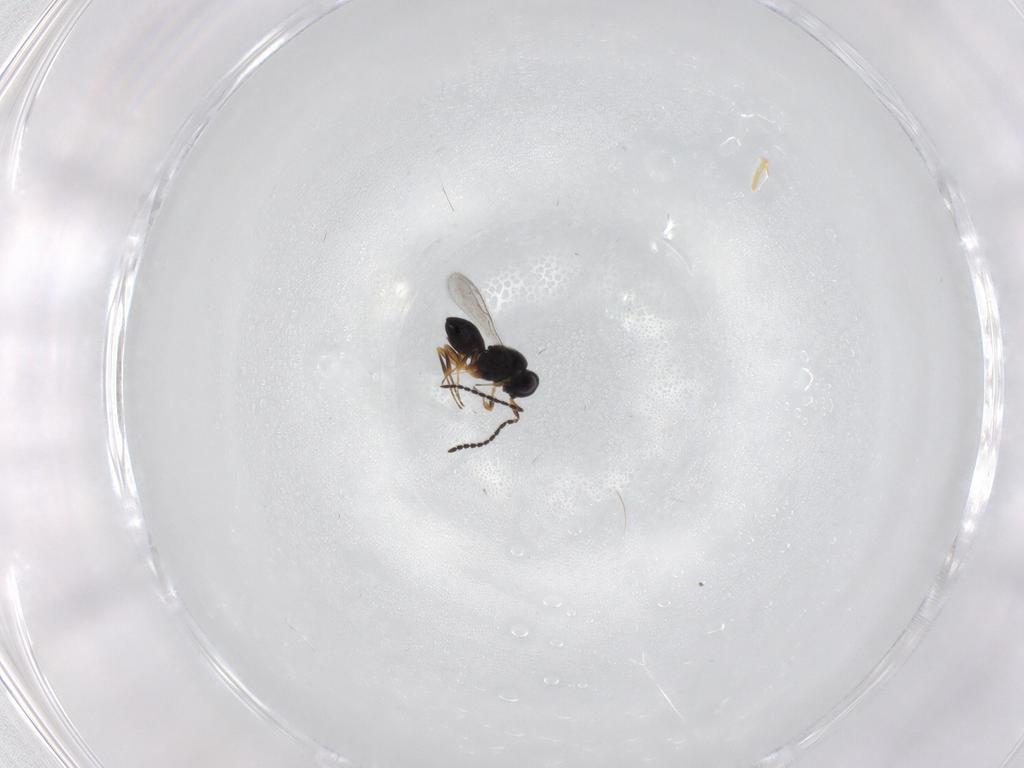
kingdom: Animalia
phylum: Arthropoda
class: Insecta
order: Hymenoptera
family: Scelionidae
